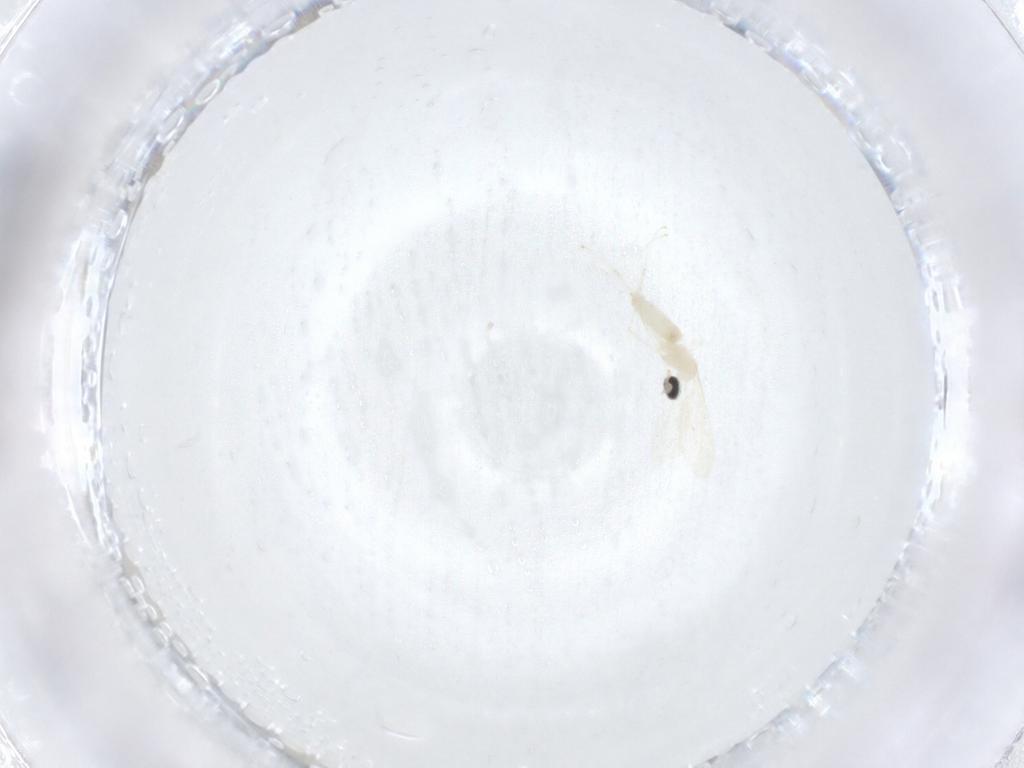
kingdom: Animalia
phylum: Arthropoda
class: Insecta
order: Diptera
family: Cecidomyiidae
